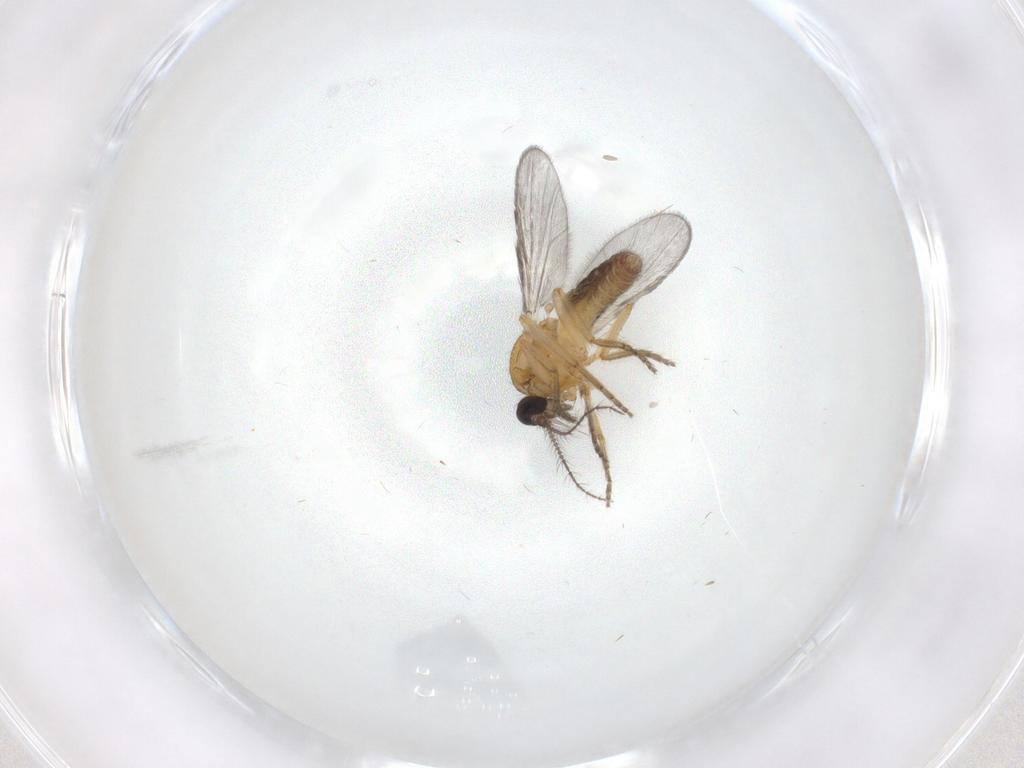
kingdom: Animalia
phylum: Arthropoda
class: Insecta
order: Diptera
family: Ceratopogonidae
